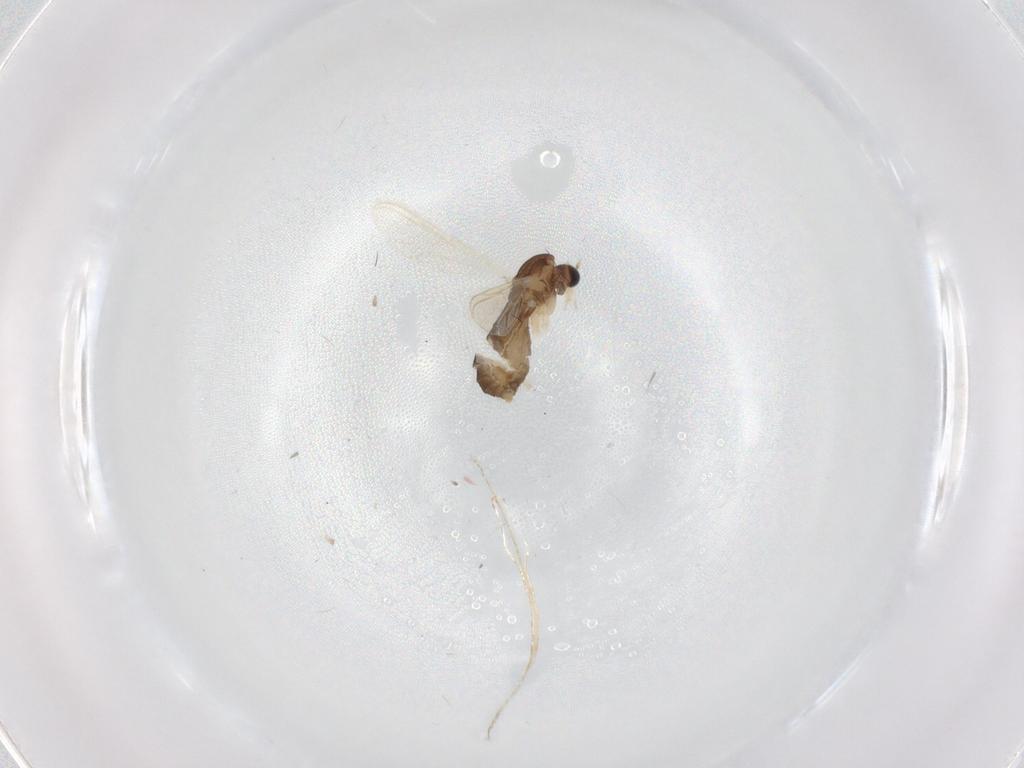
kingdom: Animalia
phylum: Arthropoda
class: Insecta
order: Diptera
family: Chironomidae
